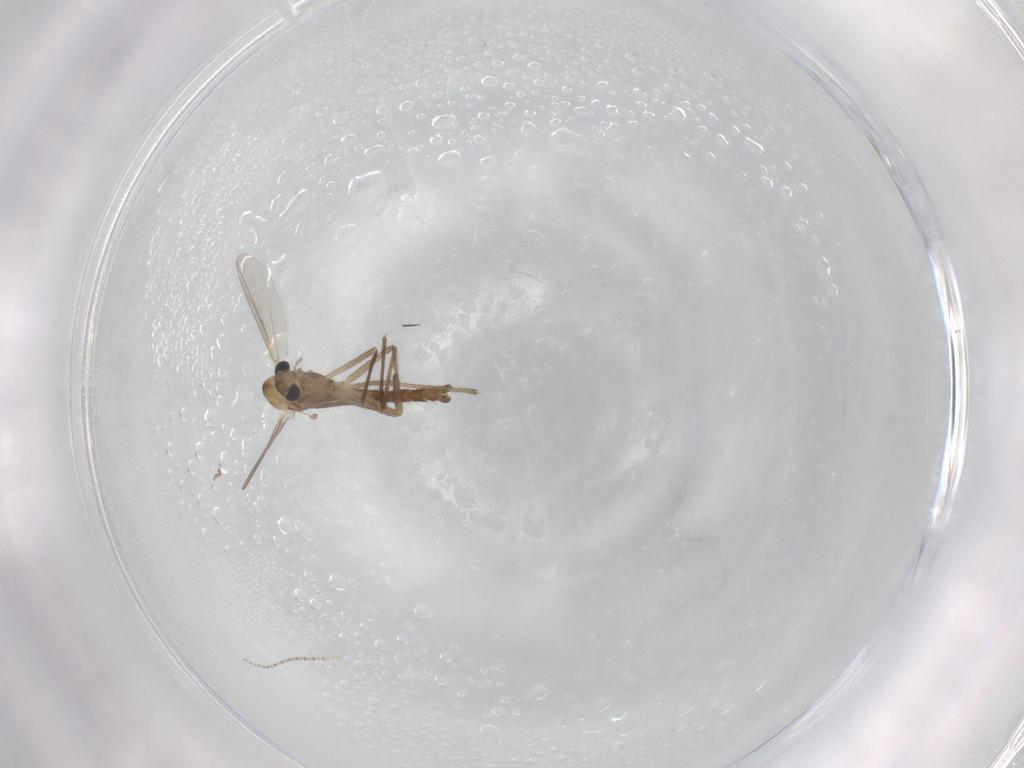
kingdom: Animalia
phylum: Arthropoda
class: Insecta
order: Diptera
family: Chironomidae
